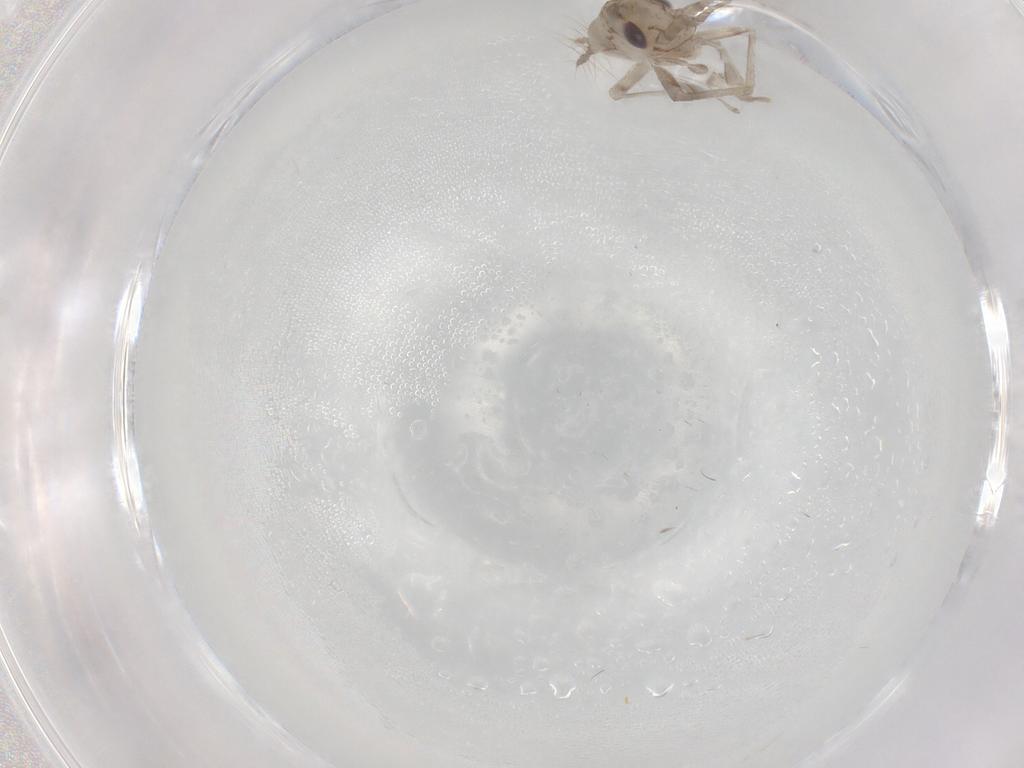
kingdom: Animalia
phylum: Arthropoda
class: Insecta
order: Orthoptera
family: Trigonidiidae
